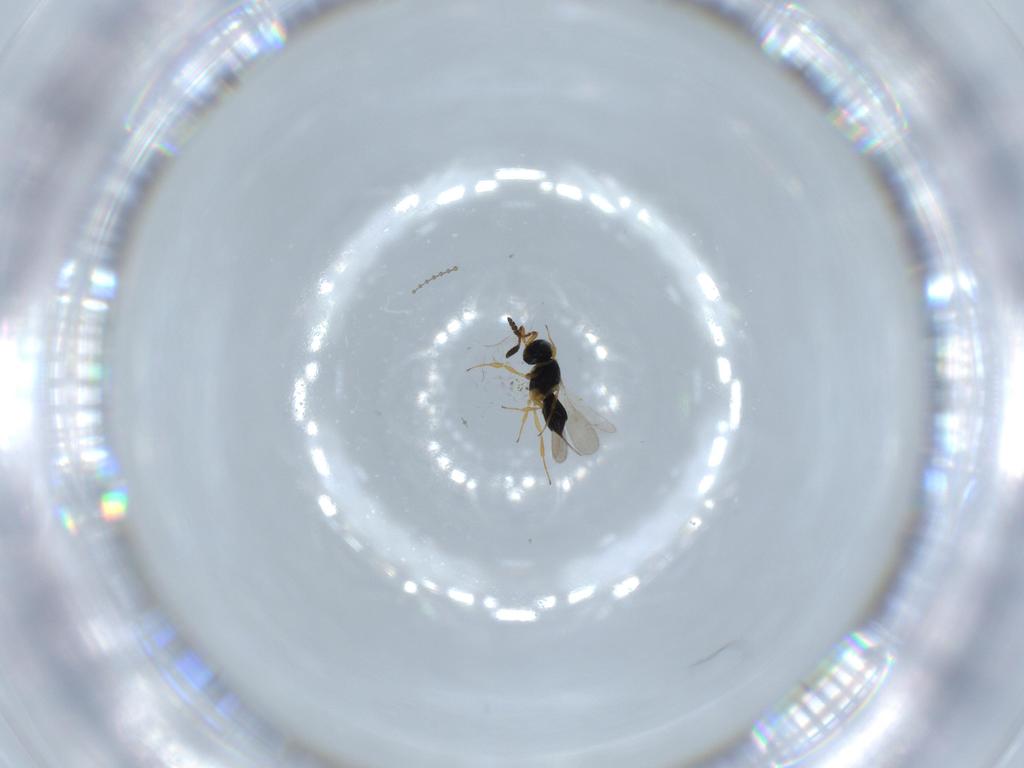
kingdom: Animalia
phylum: Arthropoda
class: Insecta
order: Hymenoptera
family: Scelionidae
